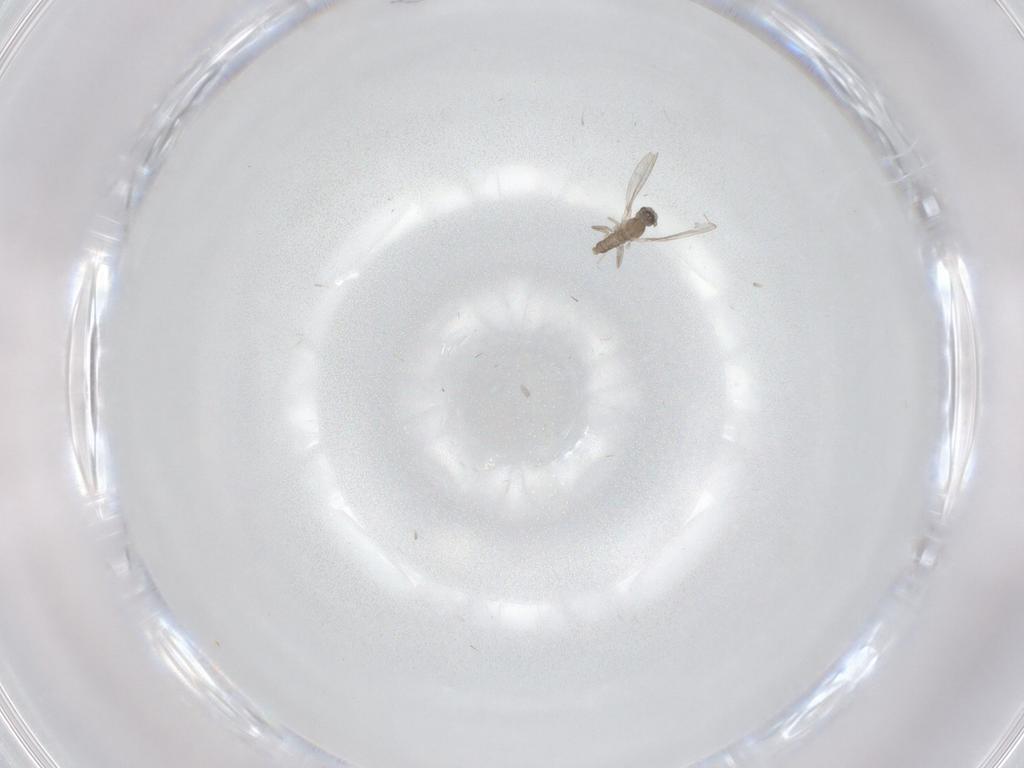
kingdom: Animalia
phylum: Arthropoda
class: Insecta
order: Diptera
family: Cecidomyiidae
